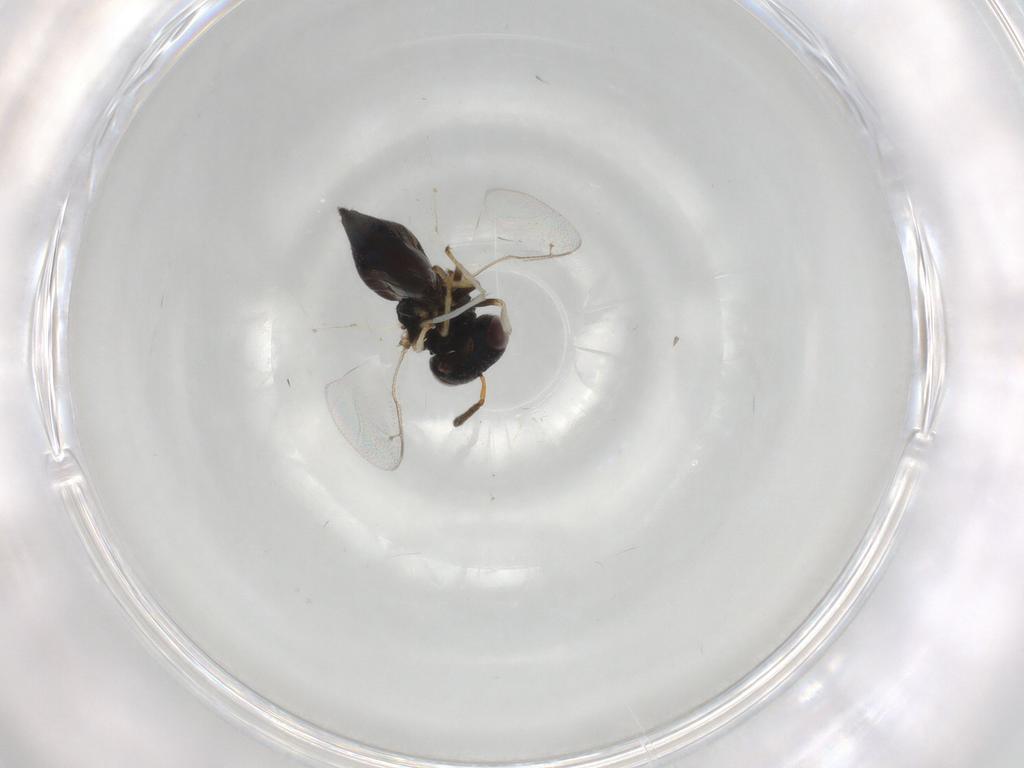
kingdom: Animalia
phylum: Arthropoda
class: Insecta
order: Hymenoptera
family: Pteromalidae
